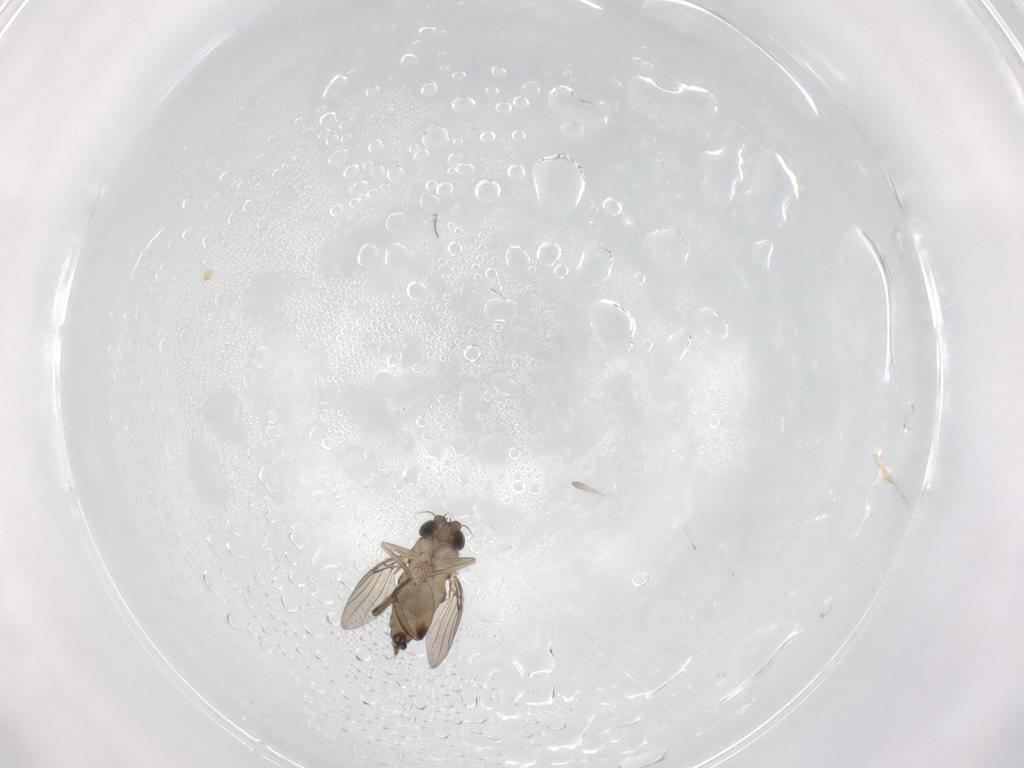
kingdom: Animalia
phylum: Arthropoda
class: Insecta
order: Diptera
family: Phoridae
